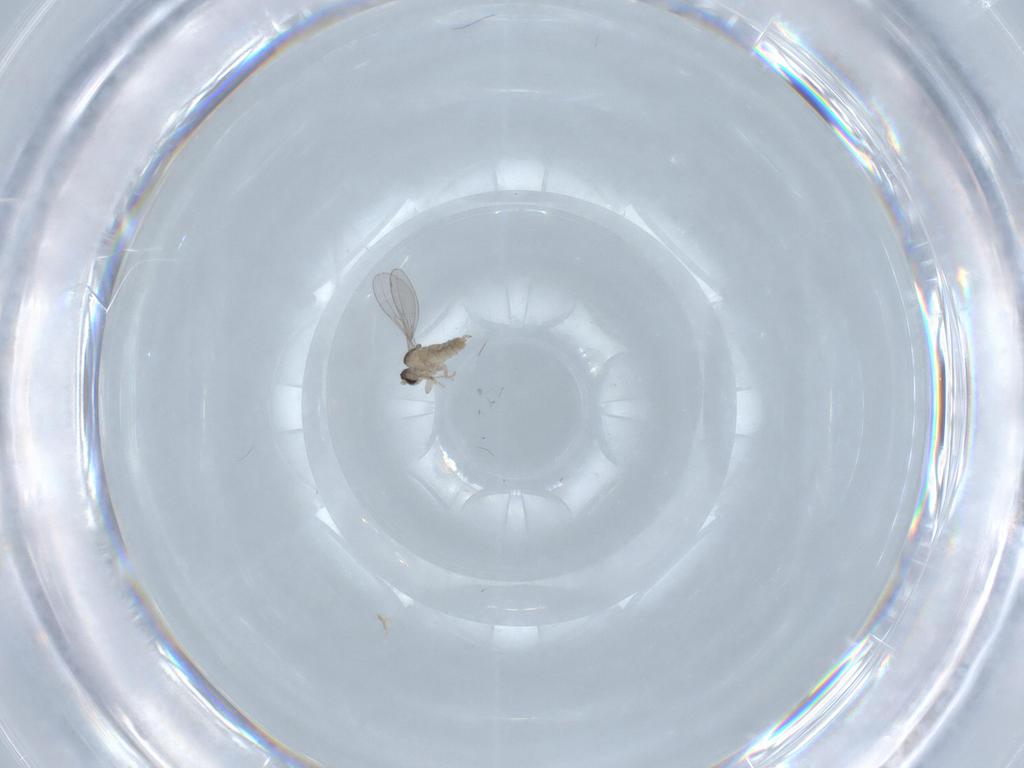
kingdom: Animalia
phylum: Arthropoda
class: Insecta
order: Diptera
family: Cecidomyiidae
